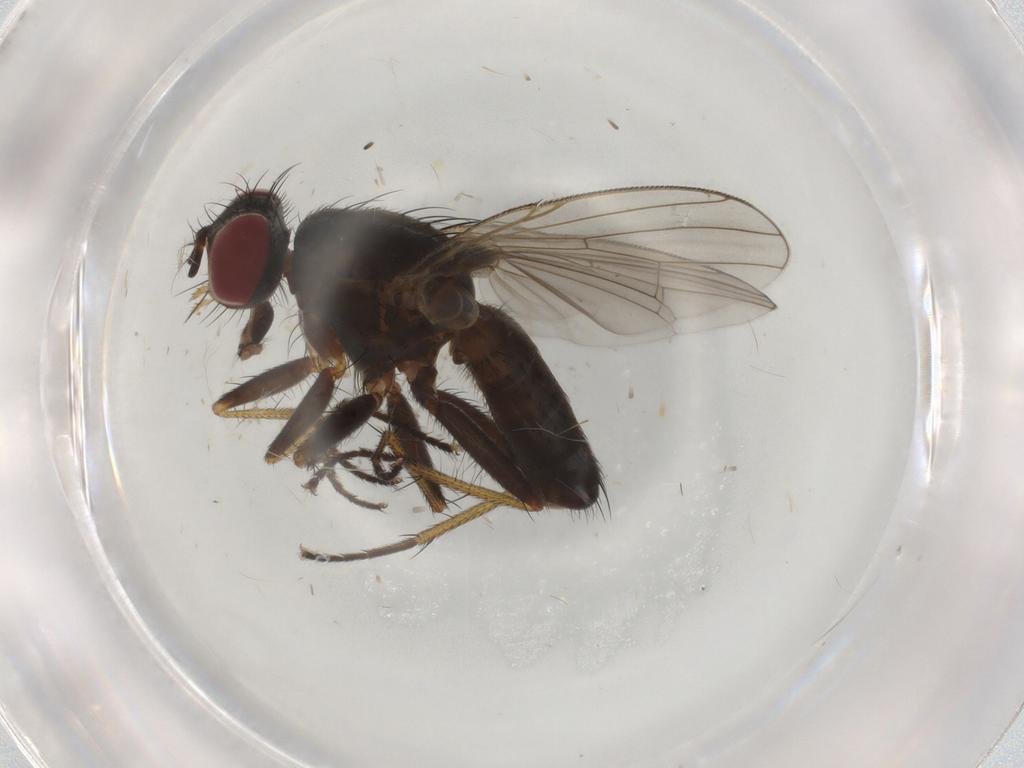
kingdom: Animalia
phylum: Arthropoda
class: Insecta
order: Diptera
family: Muscidae
